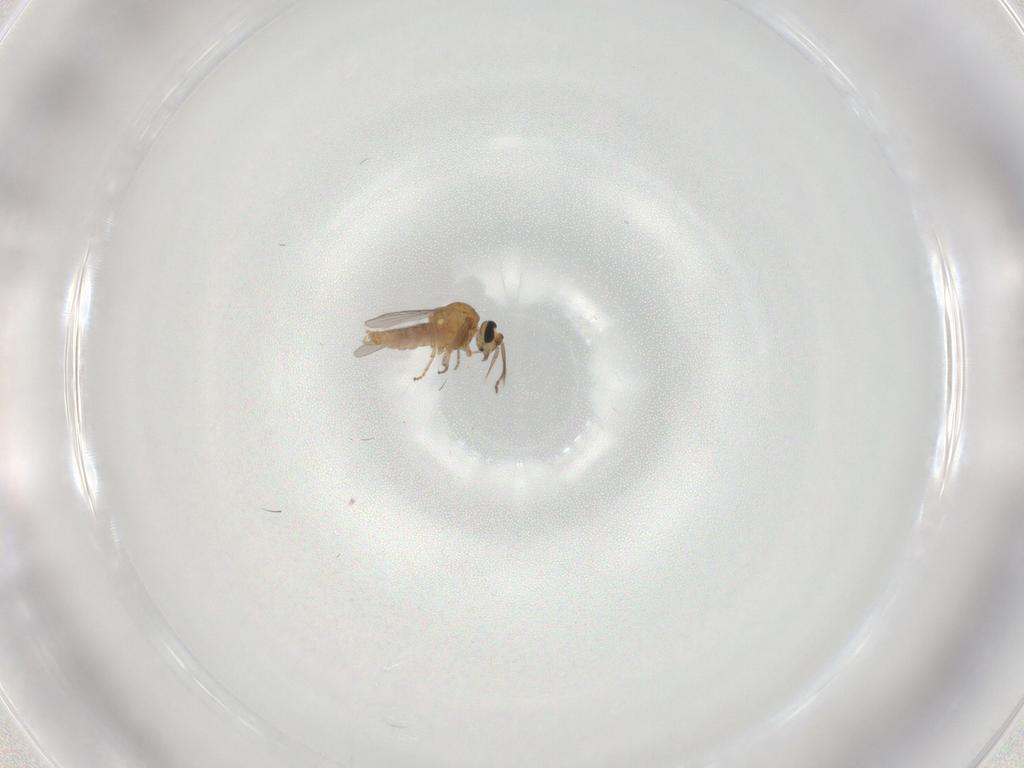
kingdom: Animalia
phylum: Arthropoda
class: Insecta
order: Diptera
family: Ceratopogonidae
